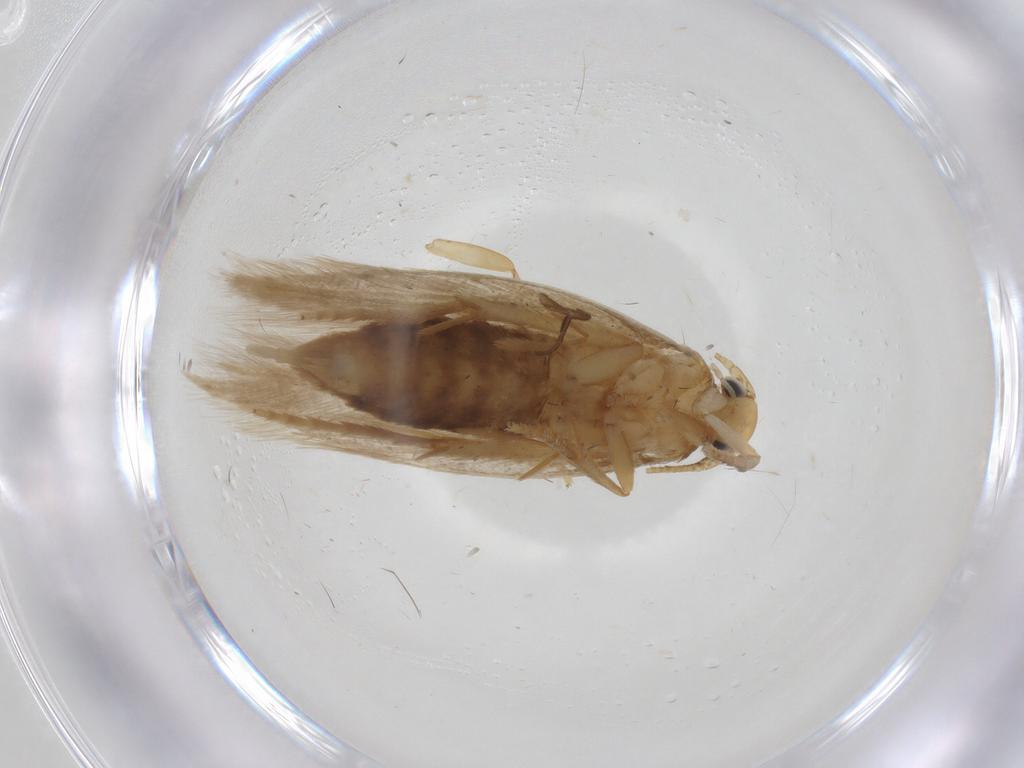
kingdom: Animalia
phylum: Arthropoda
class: Insecta
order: Lepidoptera
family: Tineidae
